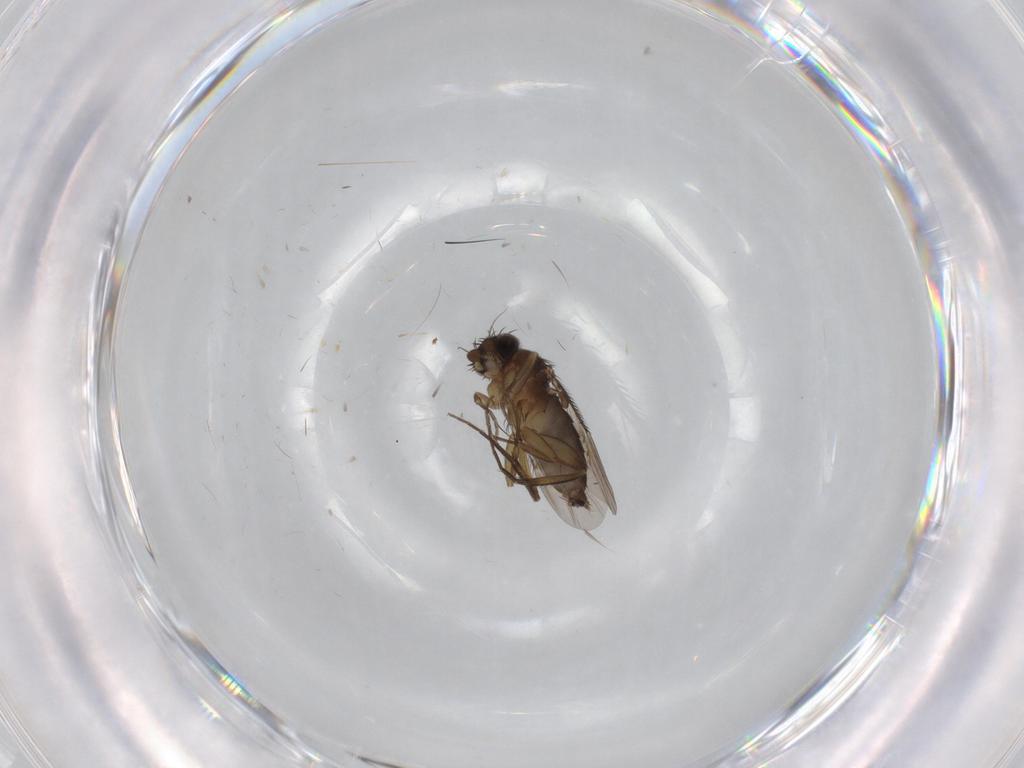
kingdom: Animalia
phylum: Arthropoda
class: Insecta
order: Diptera
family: Phoridae
